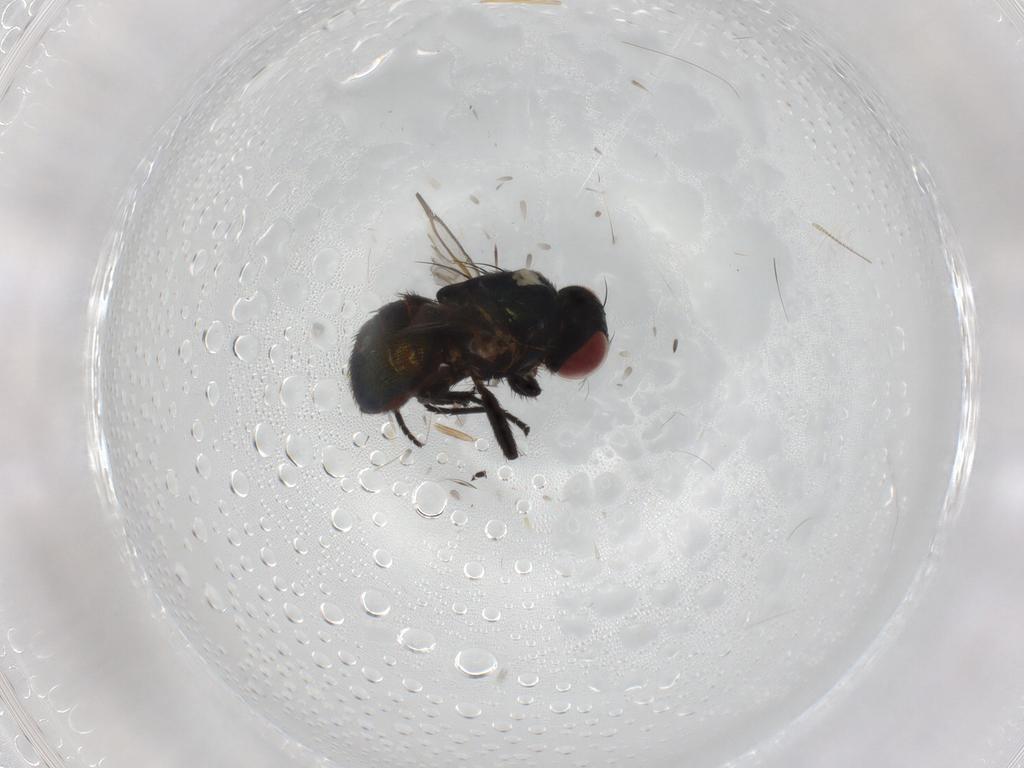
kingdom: Animalia
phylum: Arthropoda
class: Insecta
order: Diptera
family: Agromyzidae
